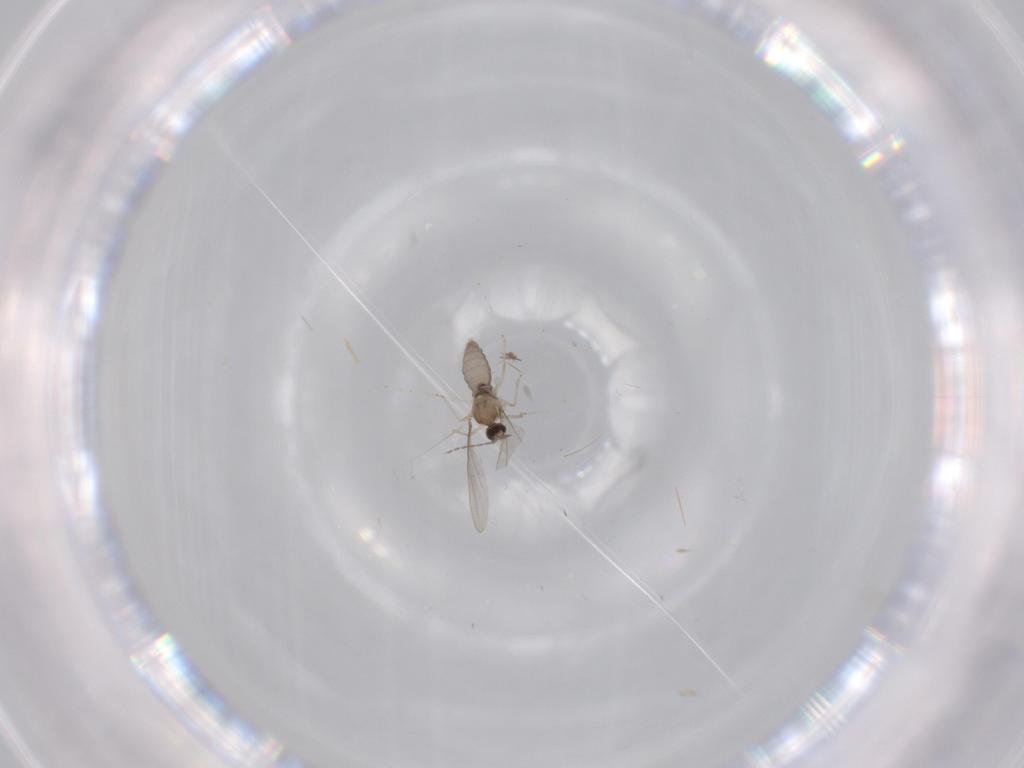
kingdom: Animalia
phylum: Arthropoda
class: Insecta
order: Diptera
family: Cecidomyiidae
